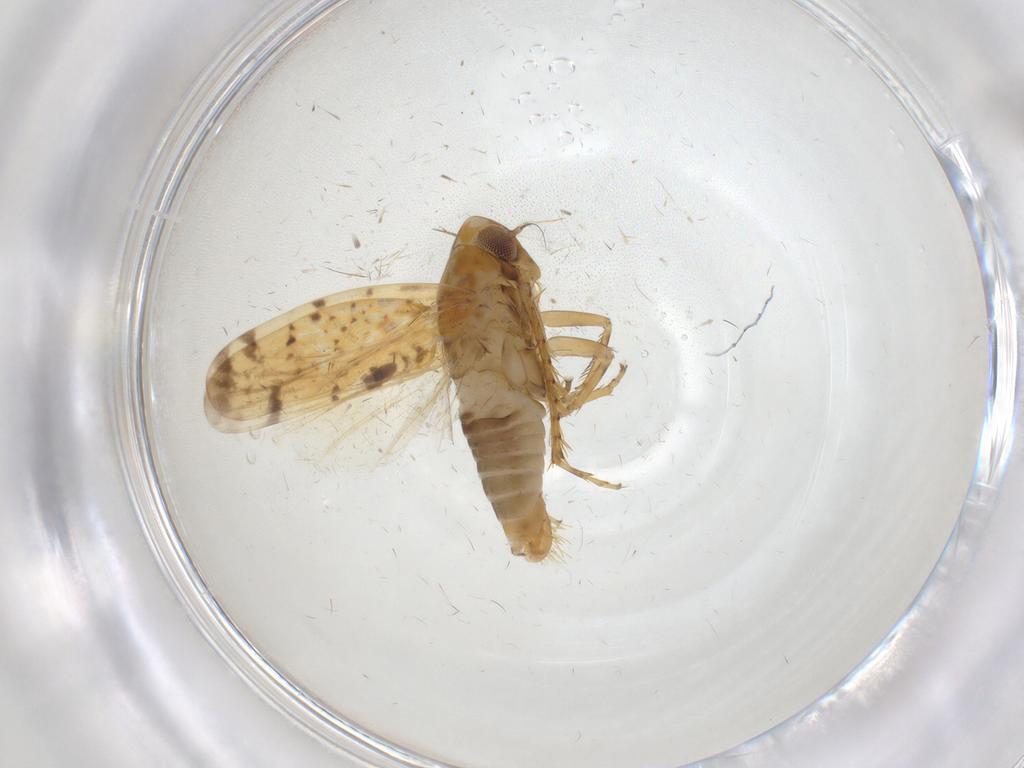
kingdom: Animalia
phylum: Arthropoda
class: Insecta
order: Hemiptera
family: Cicadellidae
